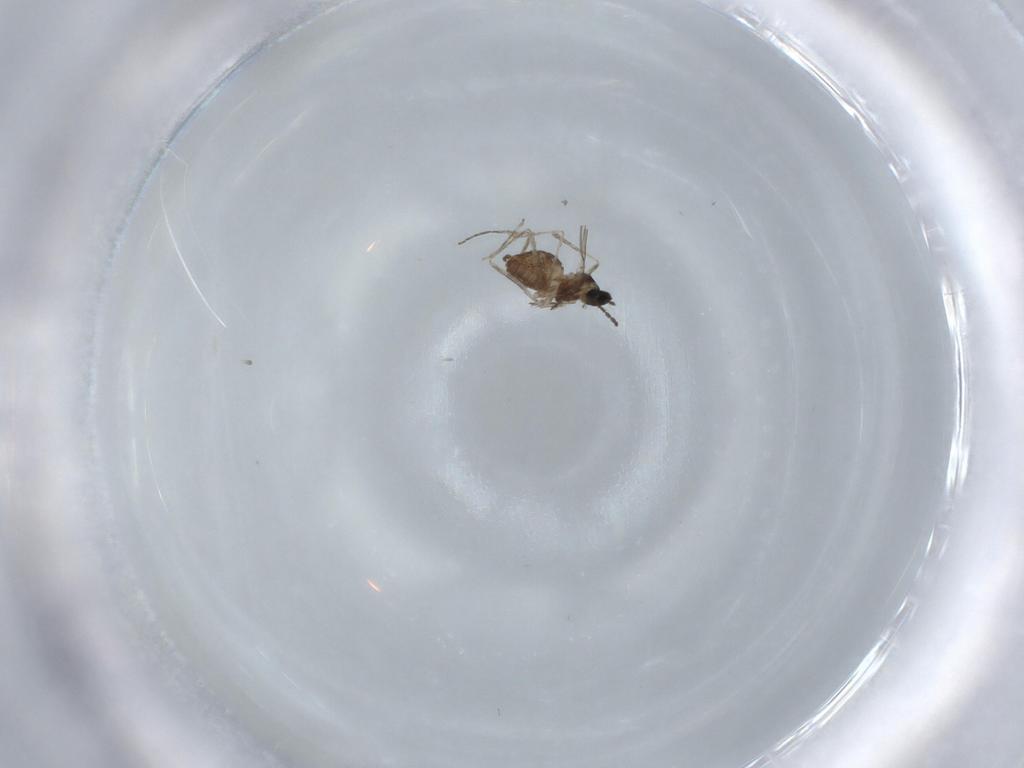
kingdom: Animalia
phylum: Arthropoda
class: Insecta
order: Diptera
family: Cecidomyiidae
